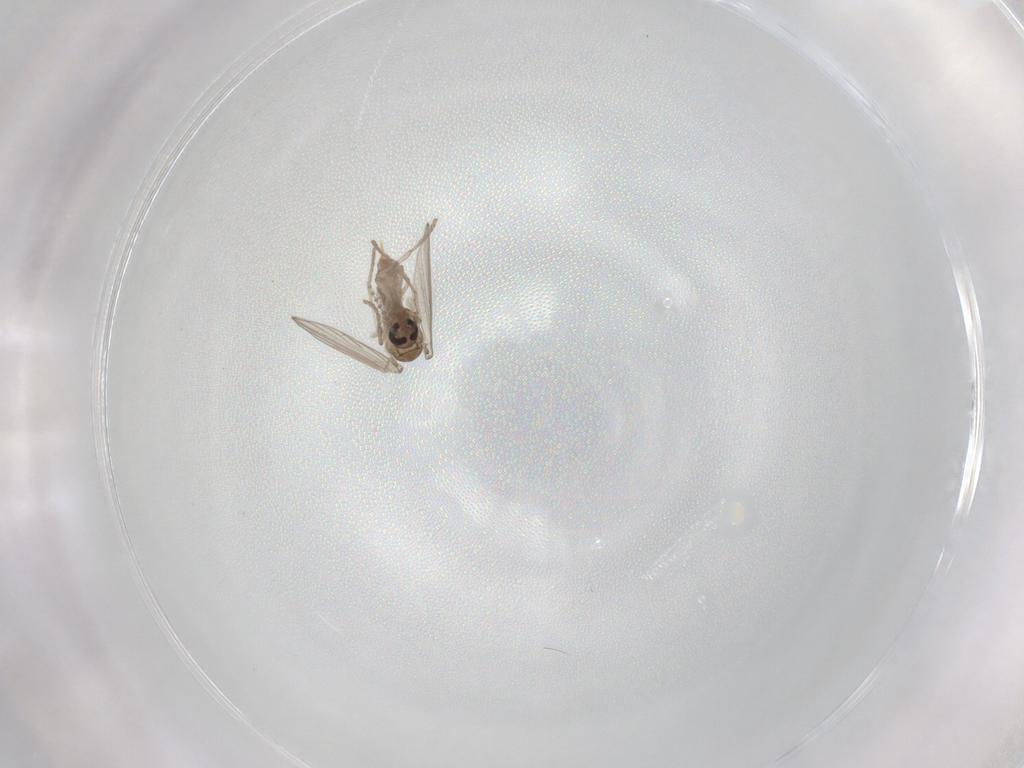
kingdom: Animalia
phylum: Arthropoda
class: Insecta
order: Diptera
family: Psychodidae
